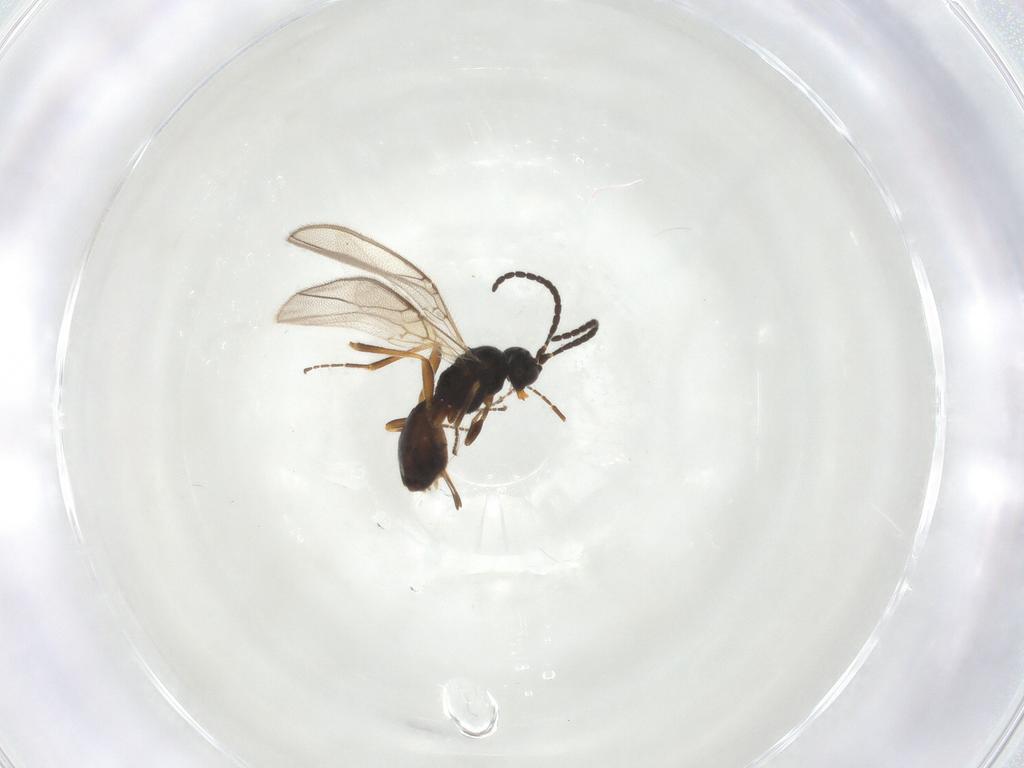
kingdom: Animalia
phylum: Arthropoda
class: Insecta
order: Hymenoptera
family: Braconidae
